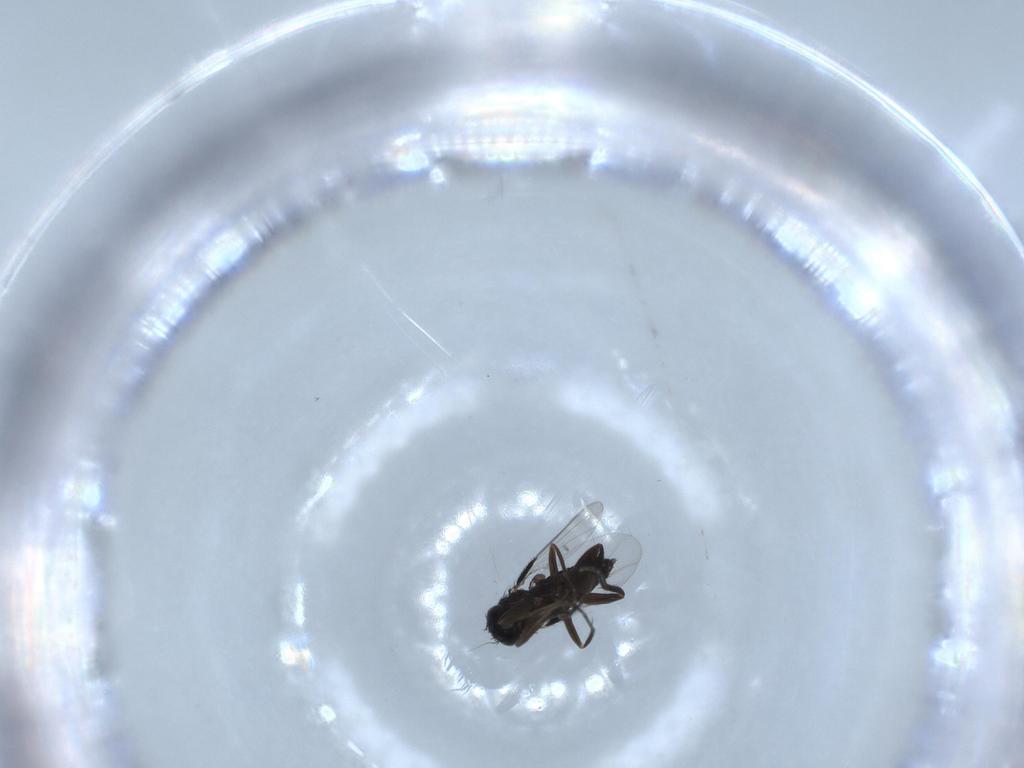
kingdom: Animalia
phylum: Arthropoda
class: Insecta
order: Diptera
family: Phoridae
